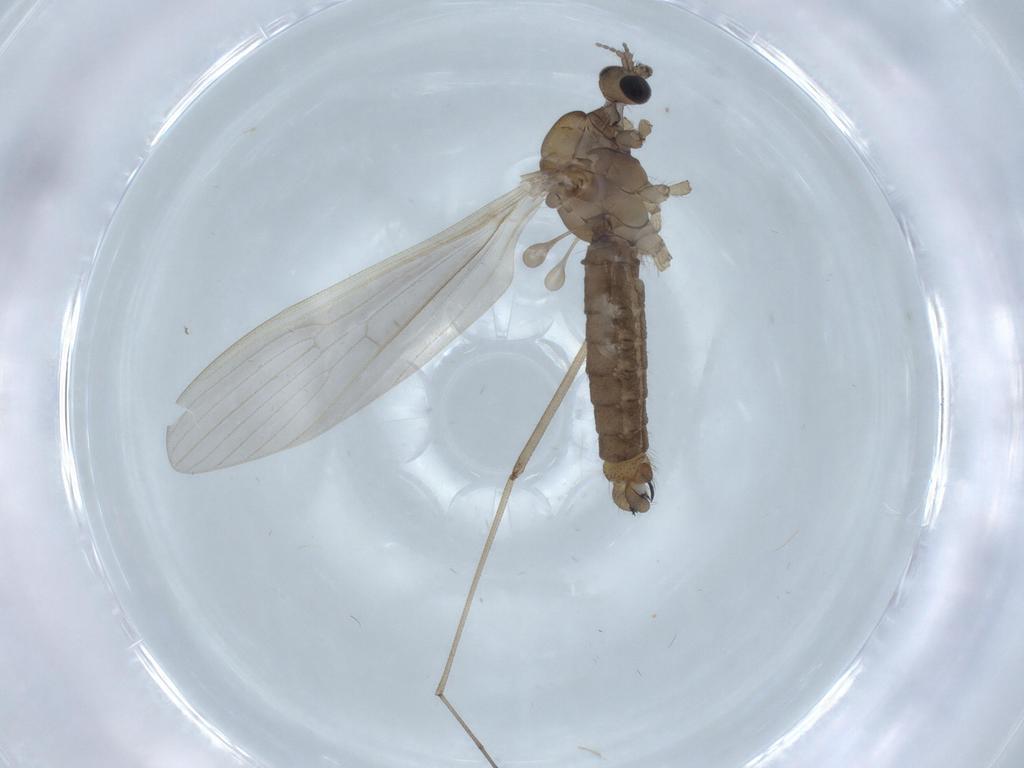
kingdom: Animalia
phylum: Arthropoda
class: Insecta
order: Diptera
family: Phoridae
